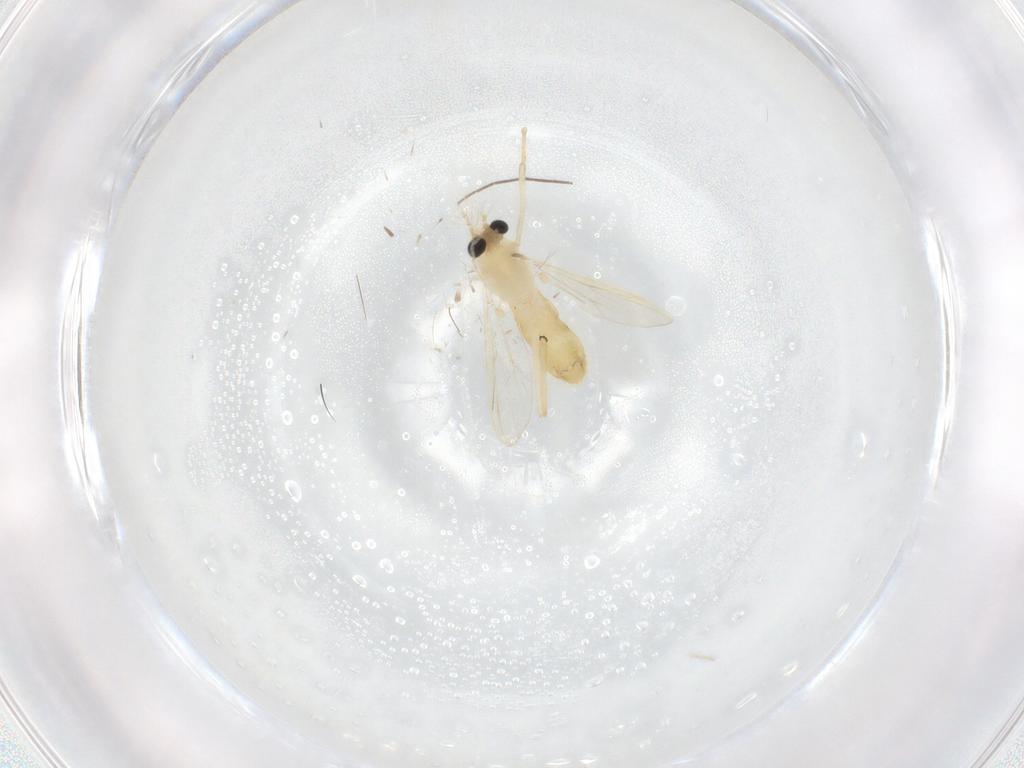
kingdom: Animalia
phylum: Arthropoda
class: Insecta
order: Diptera
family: Chironomidae
